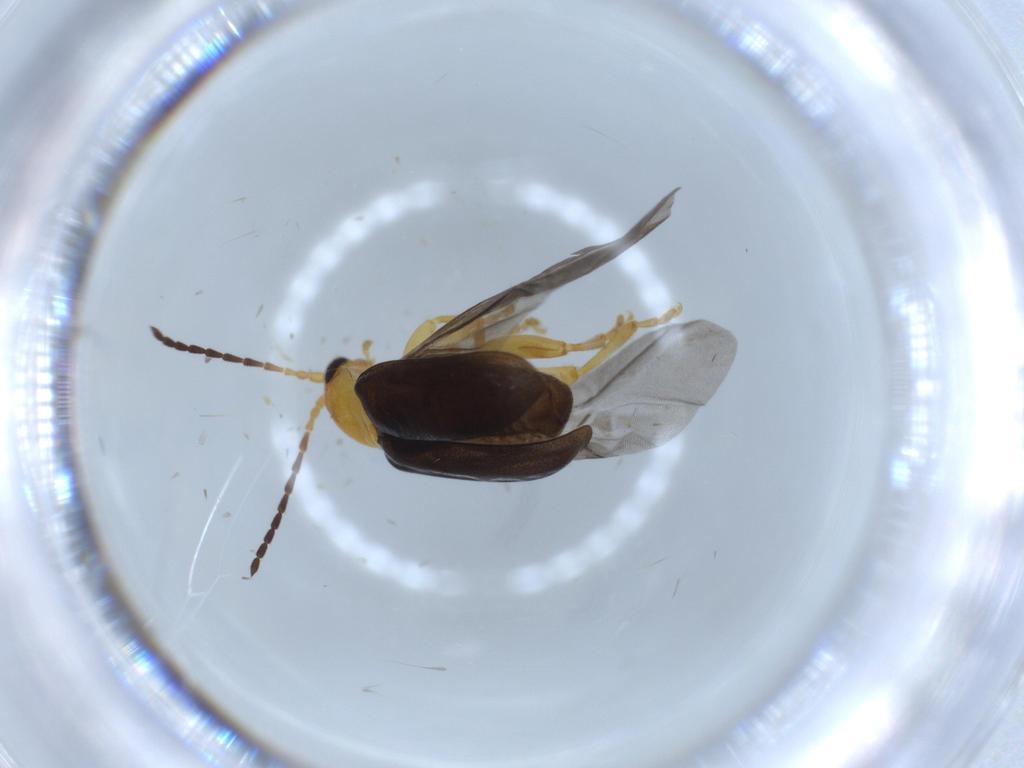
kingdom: Animalia
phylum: Arthropoda
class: Insecta
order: Coleoptera
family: Chrysomelidae
